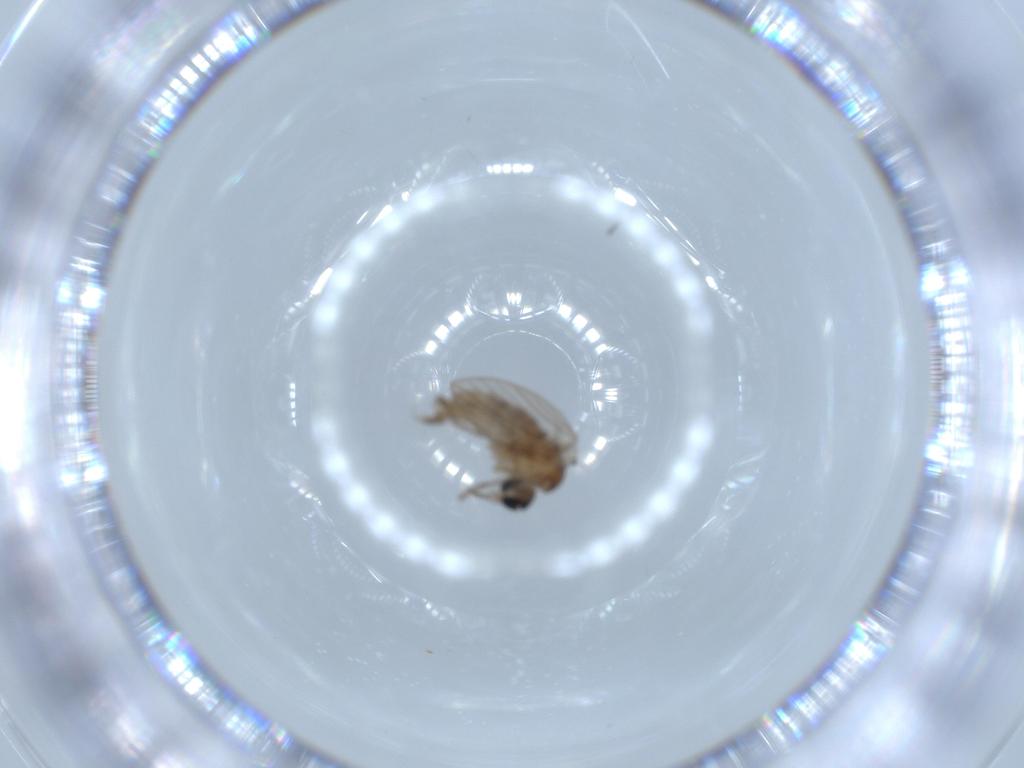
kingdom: Animalia
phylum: Arthropoda
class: Insecta
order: Diptera
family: Psychodidae
